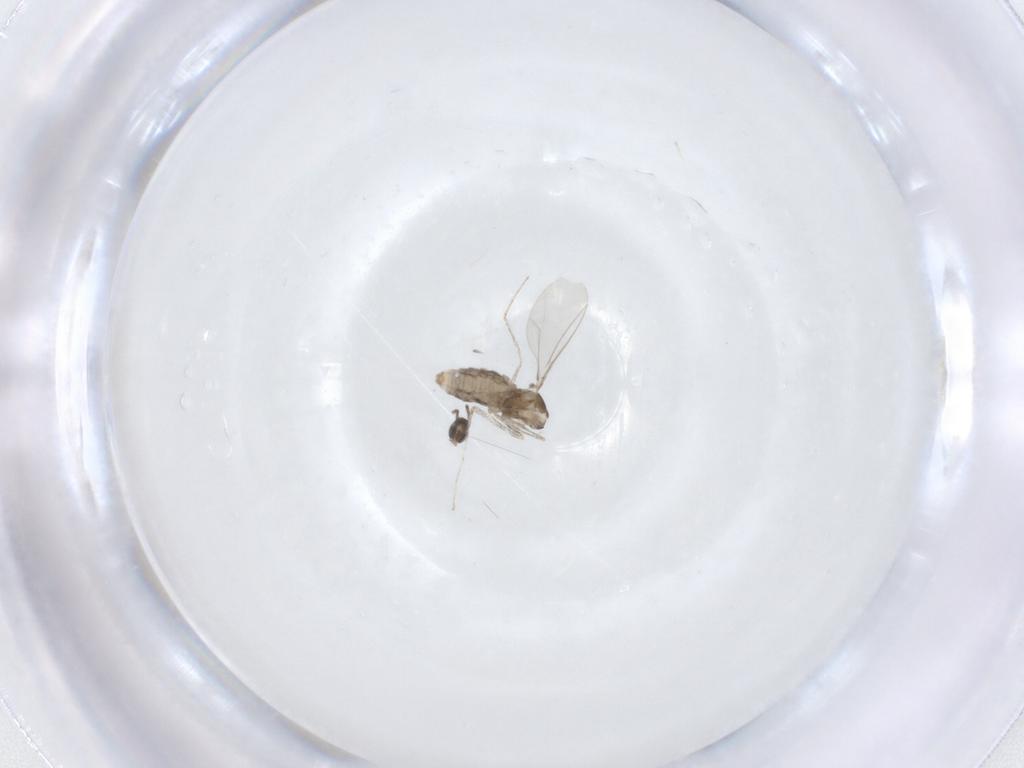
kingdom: Animalia
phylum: Arthropoda
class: Insecta
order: Diptera
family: Cecidomyiidae
